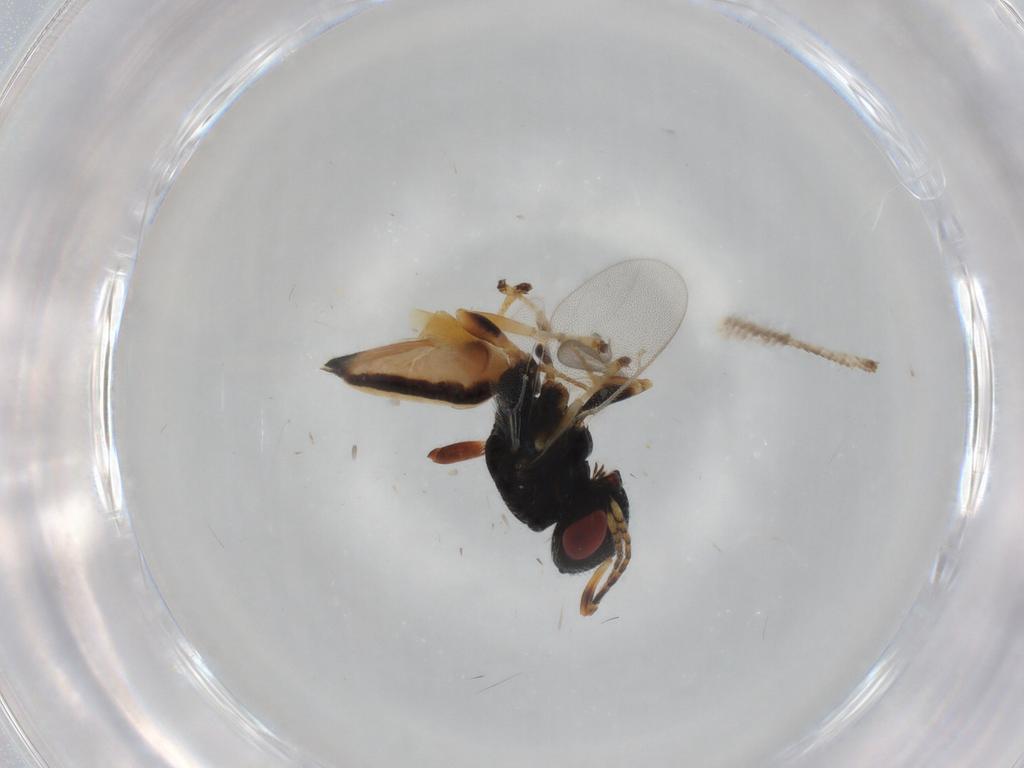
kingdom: Animalia
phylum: Arthropoda
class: Insecta
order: Hymenoptera
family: Pteromalidae
